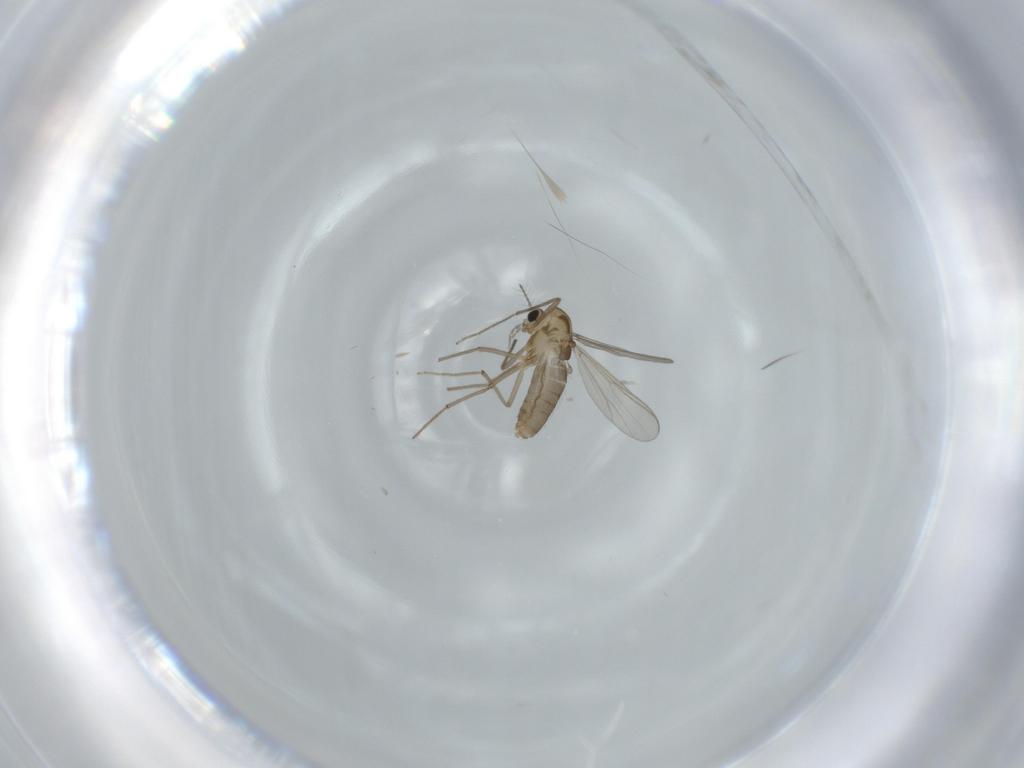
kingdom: Animalia
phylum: Arthropoda
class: Insecta
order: Diptera
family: Chironomidae
